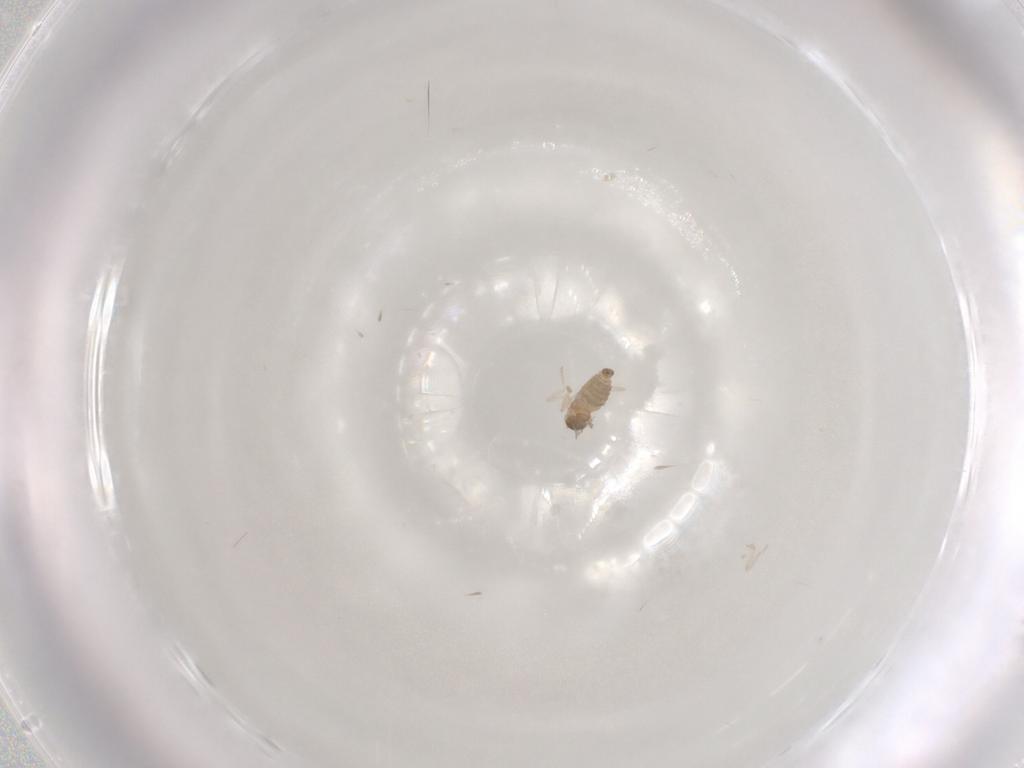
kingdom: Animalia
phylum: Arthropoda
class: Insecta
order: Diptera
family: Cecidomyiidae
